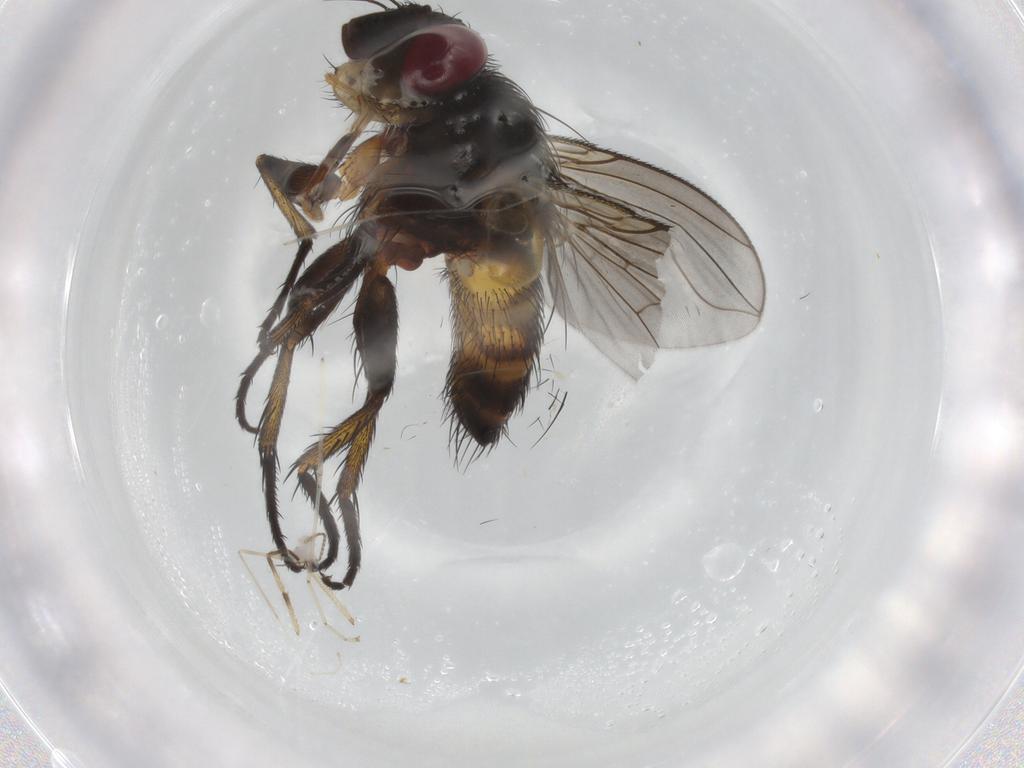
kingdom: Animalia
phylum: Arthropoda
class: Insecta
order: Diptera
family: Tachinidae
